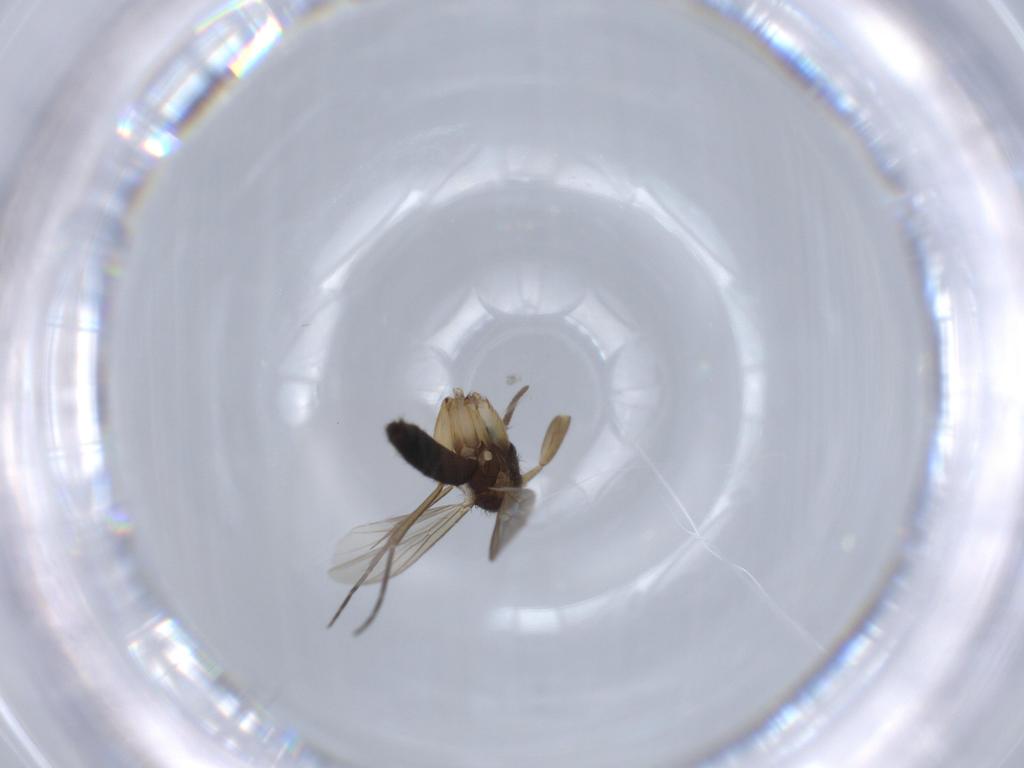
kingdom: Animalia
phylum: Arthropoda
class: Insecta
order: Diptera
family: Mycetophilidae
